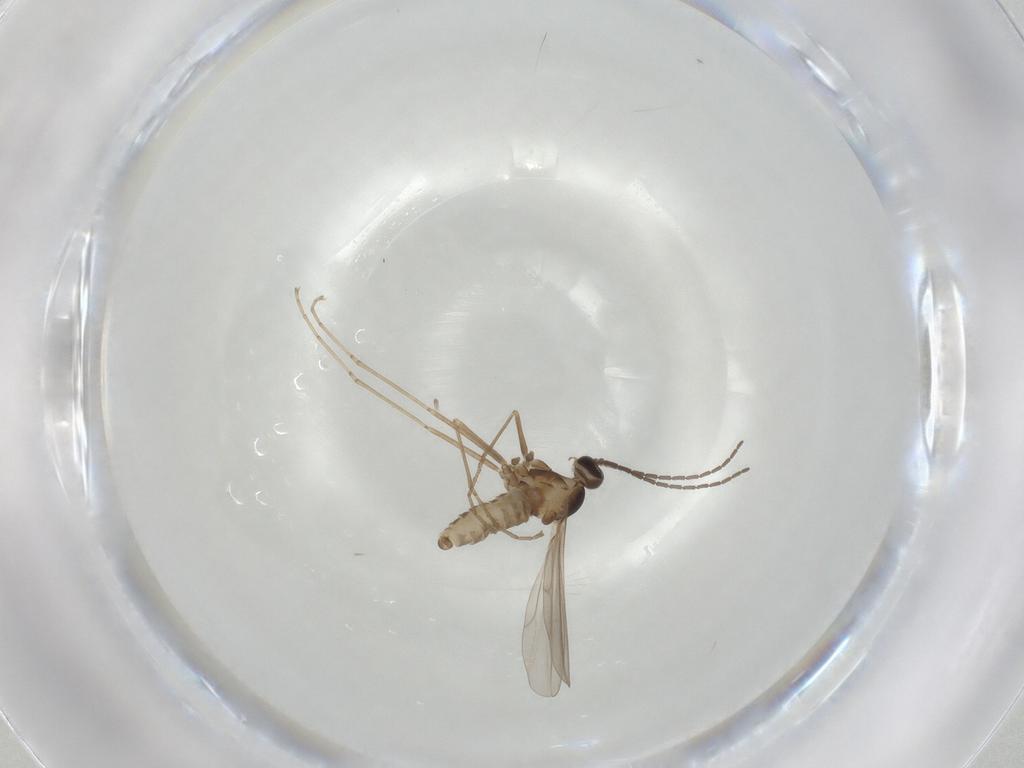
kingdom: Animalia
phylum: Arthropoda
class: Insecta
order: Diptera
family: Cecidomyiidae
